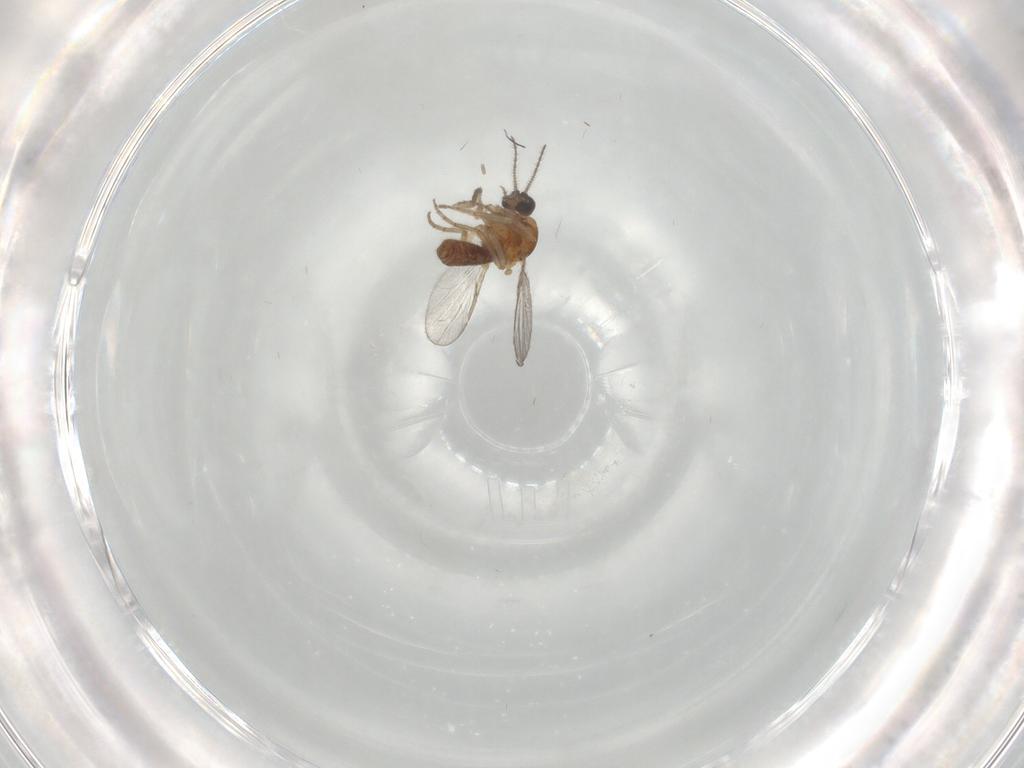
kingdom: Animalia
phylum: Arthropoda
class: Insecta
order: Diptera
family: Ceratopogonidae
